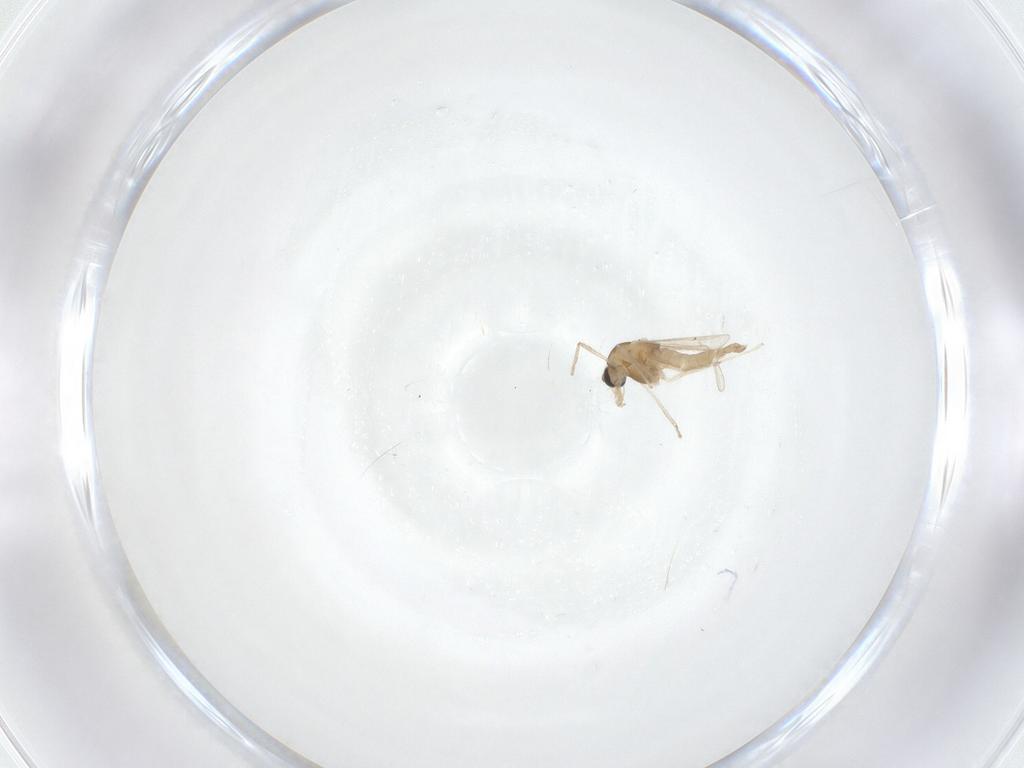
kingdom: Animalia
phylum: Arthropoda
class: Insecta
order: Diptera
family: Chironomidae
